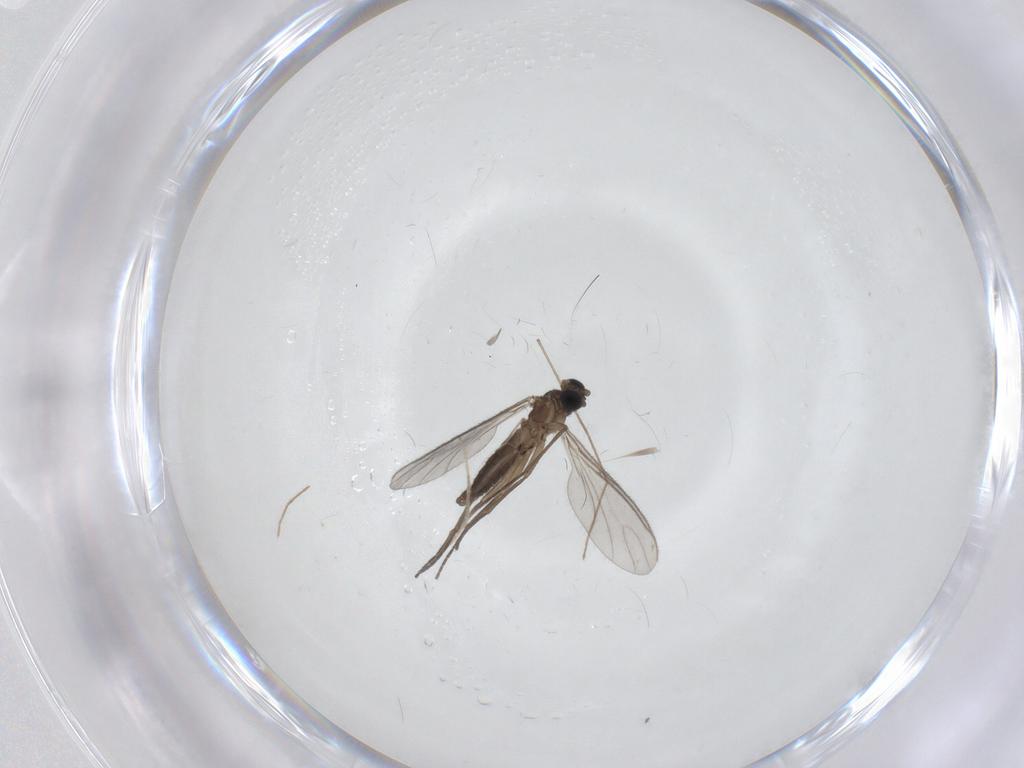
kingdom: Animalia
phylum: Arthropoda
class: Insecta
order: Diptera
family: Sciaridae
